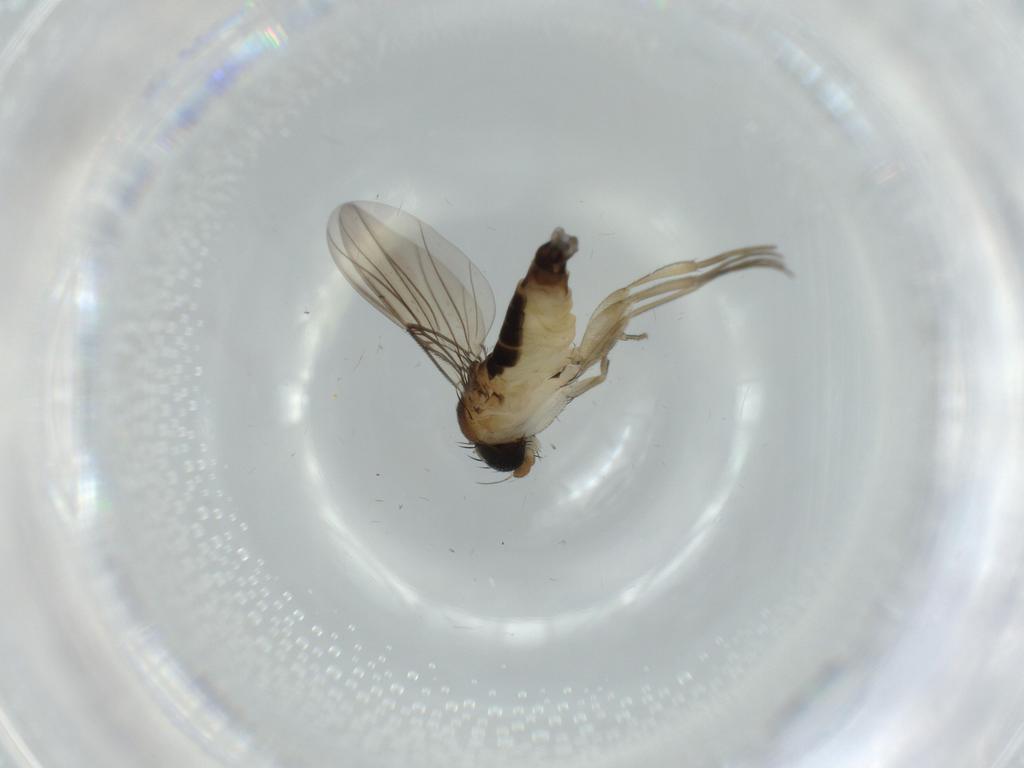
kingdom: Animalia
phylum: Arthropoda
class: Insecta
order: Diptera
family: Phoridae
